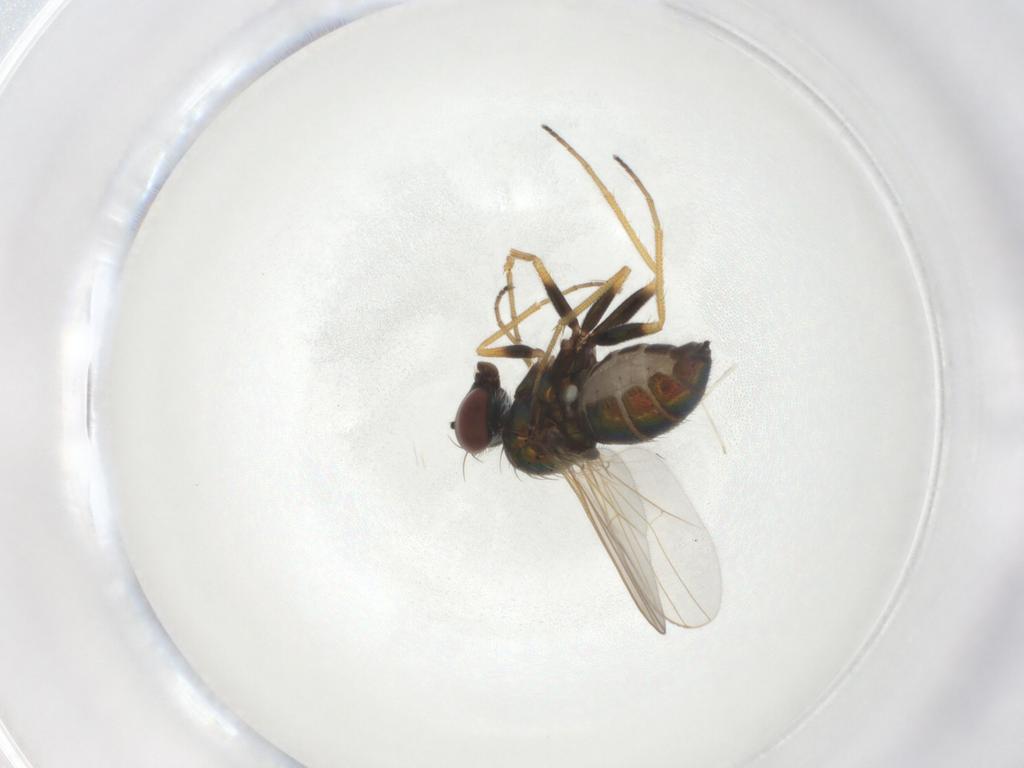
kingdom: Animalia
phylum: Arthropoda
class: Insecta
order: Diptera
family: Dolichopodidae
